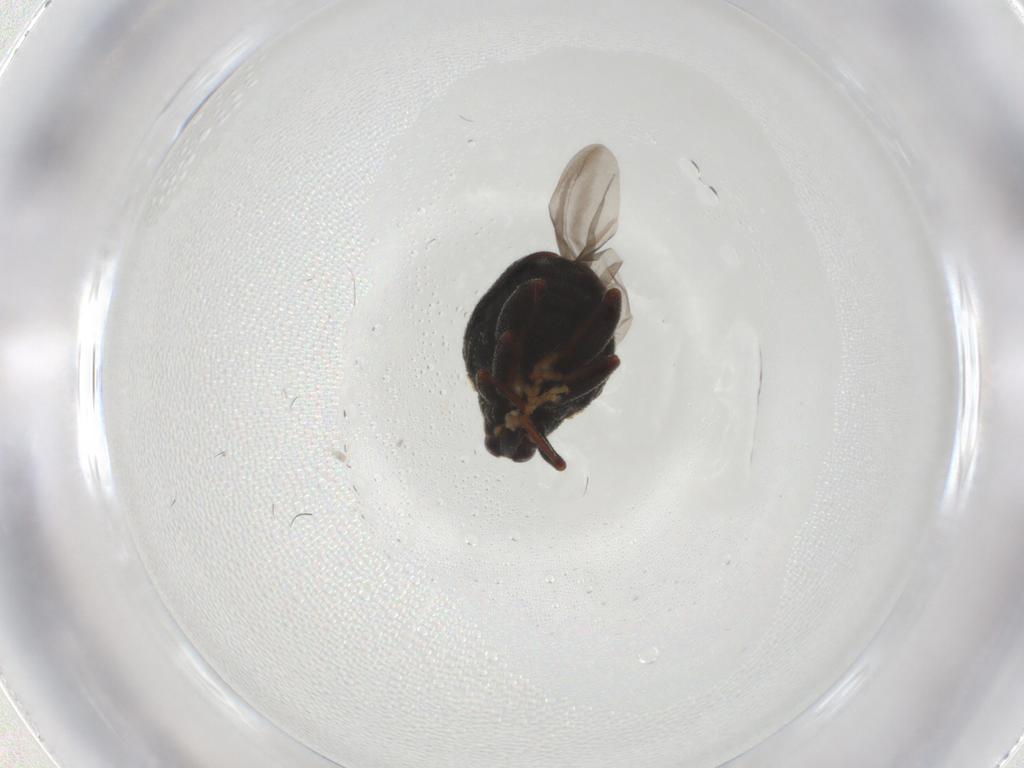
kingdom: Animalia
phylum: Arthropoda
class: Insecta
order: Coleoptera
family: Curculionidae
